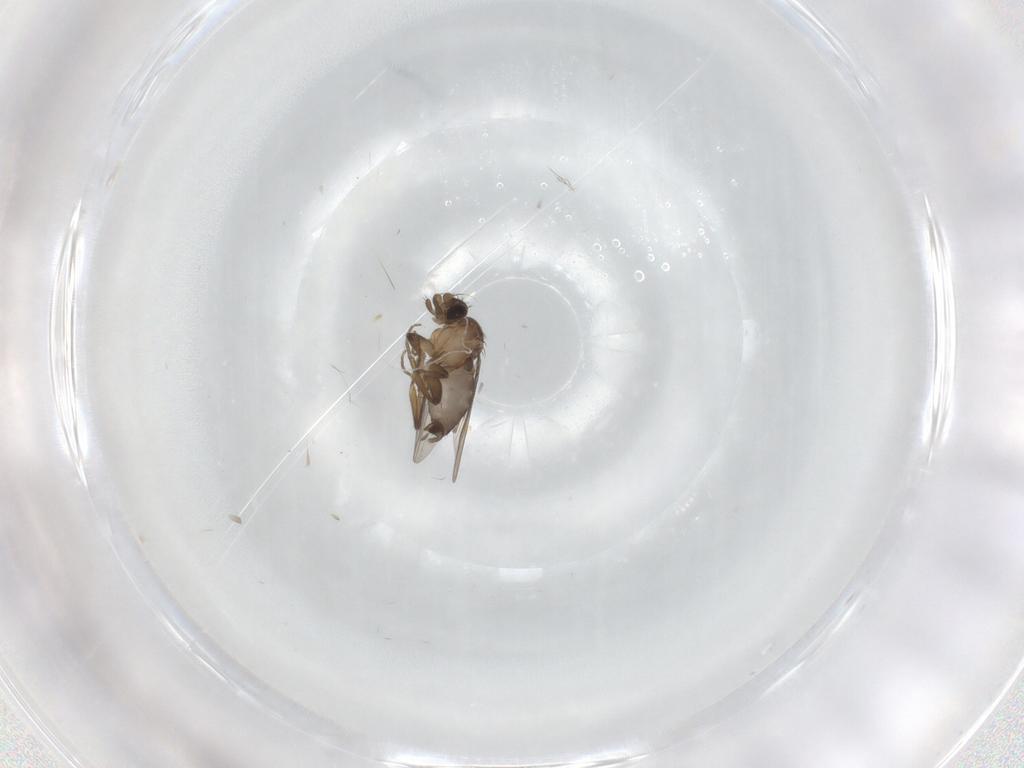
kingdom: Animalia
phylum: Arthropoda
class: Insecta
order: Diptera
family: Phoridae
